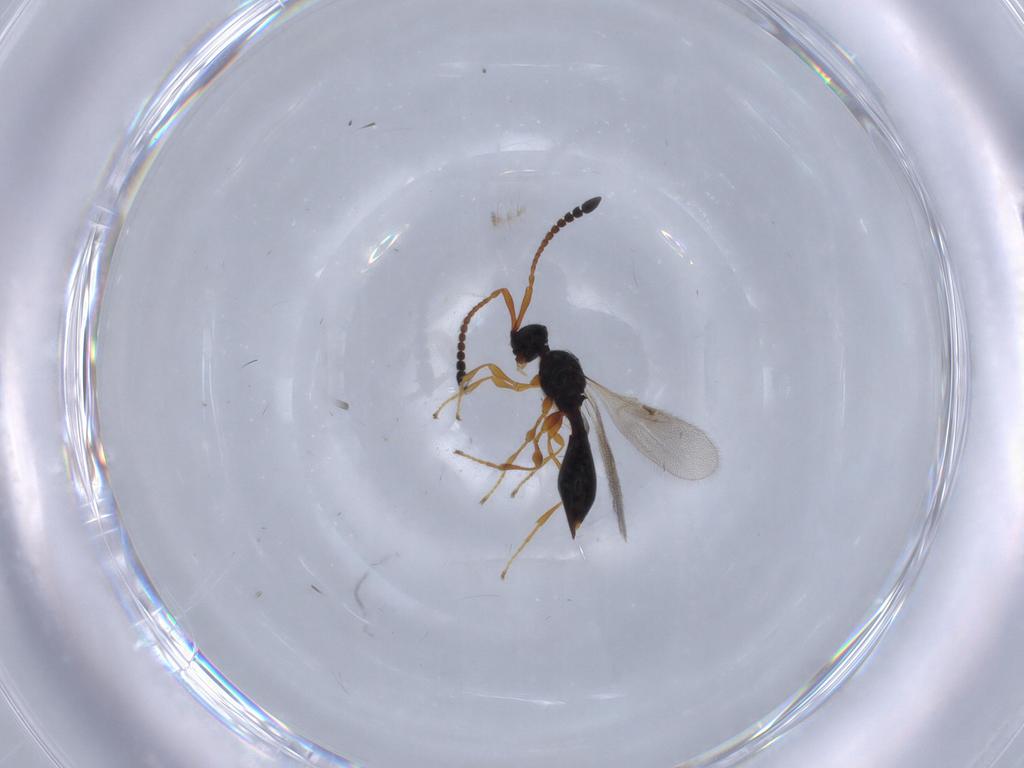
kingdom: Animalia
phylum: Arthropoda
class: Insecta
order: Hymenoptera
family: Diapriidae
